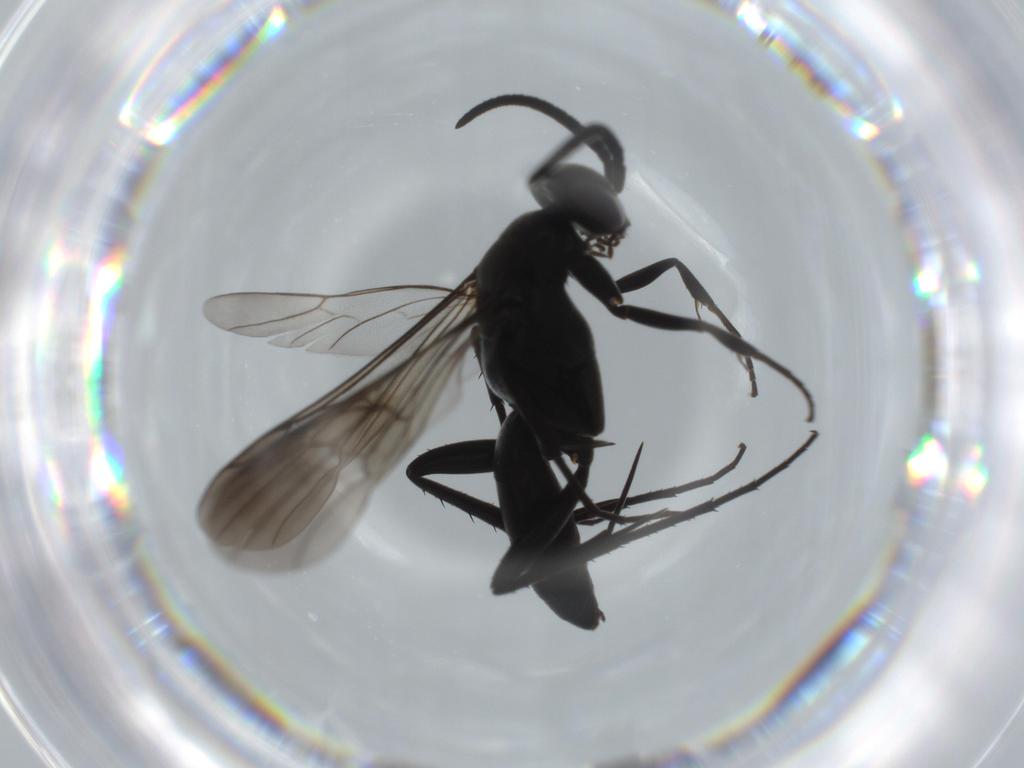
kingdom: Animalia
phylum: Arthropoda
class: Insecta
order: Hymenoptera
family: Pompilidae
